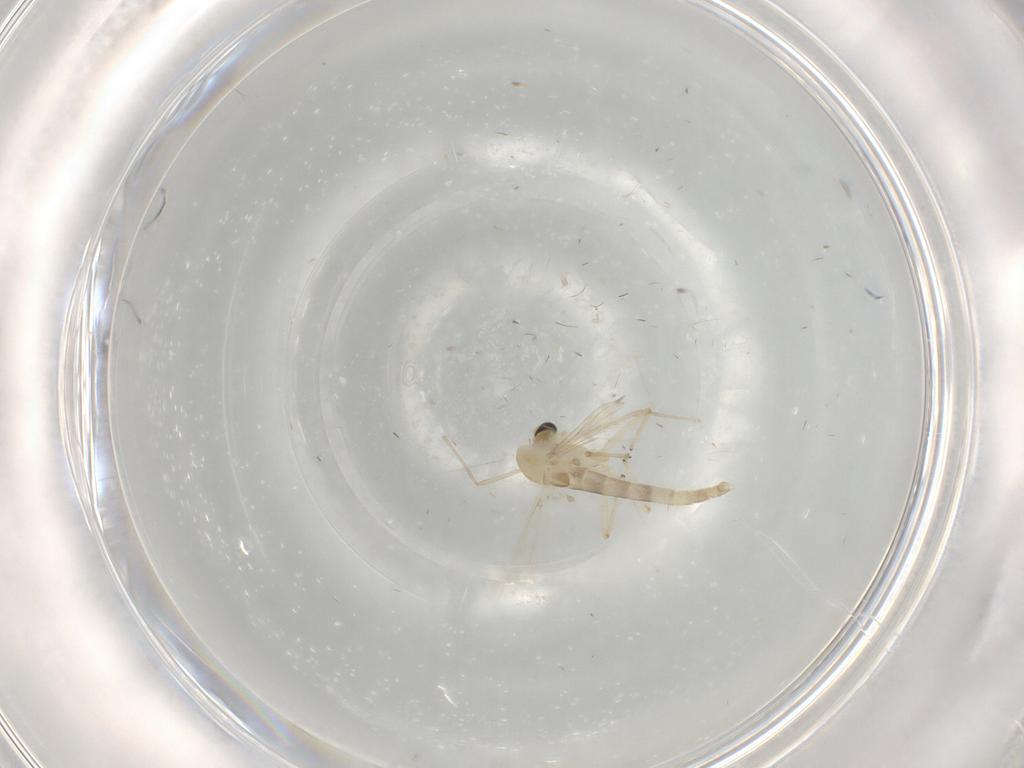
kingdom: Animalia
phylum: Arthropoda
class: Insecta
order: Diptera
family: Chironomidae
